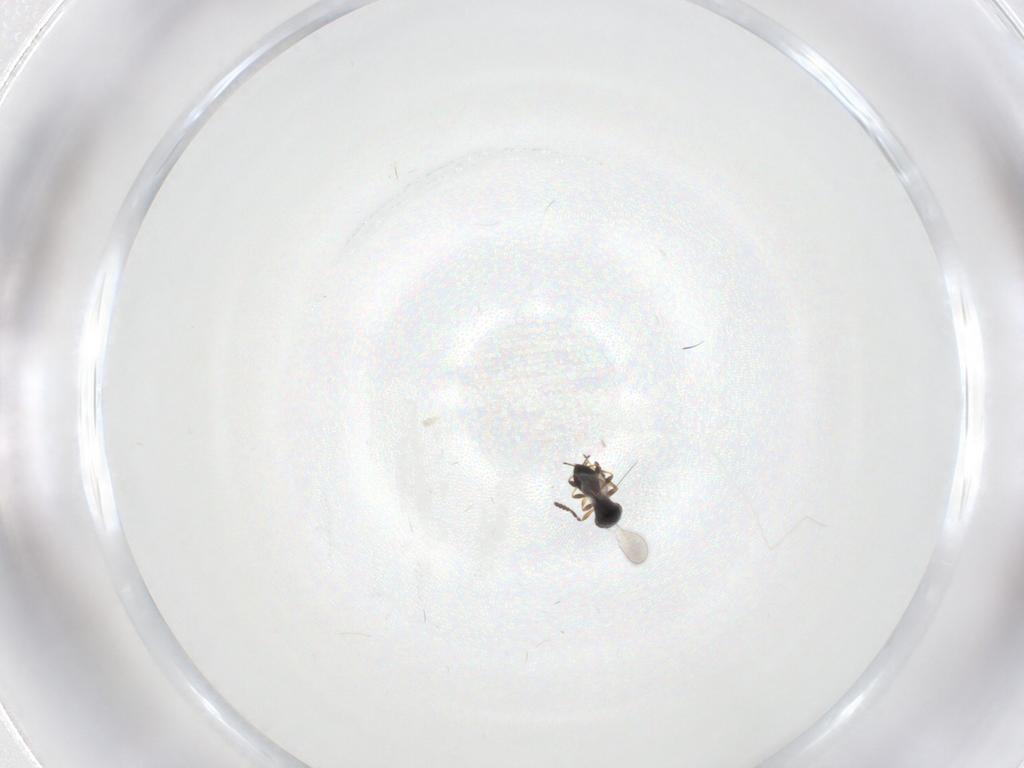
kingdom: Animalia
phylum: Arthropoda
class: Insecta
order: Hymenoptera
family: Platygastridae
